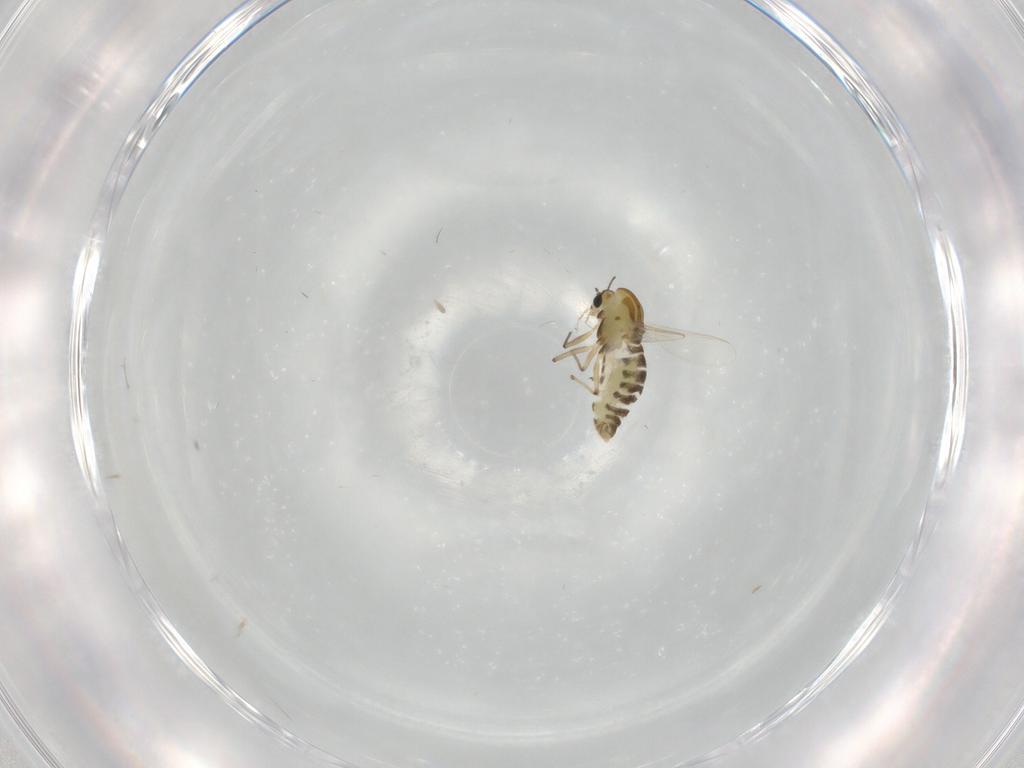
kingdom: Animalia
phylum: Arthropoda
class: Insecta
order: Diptera
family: Chironomidae
